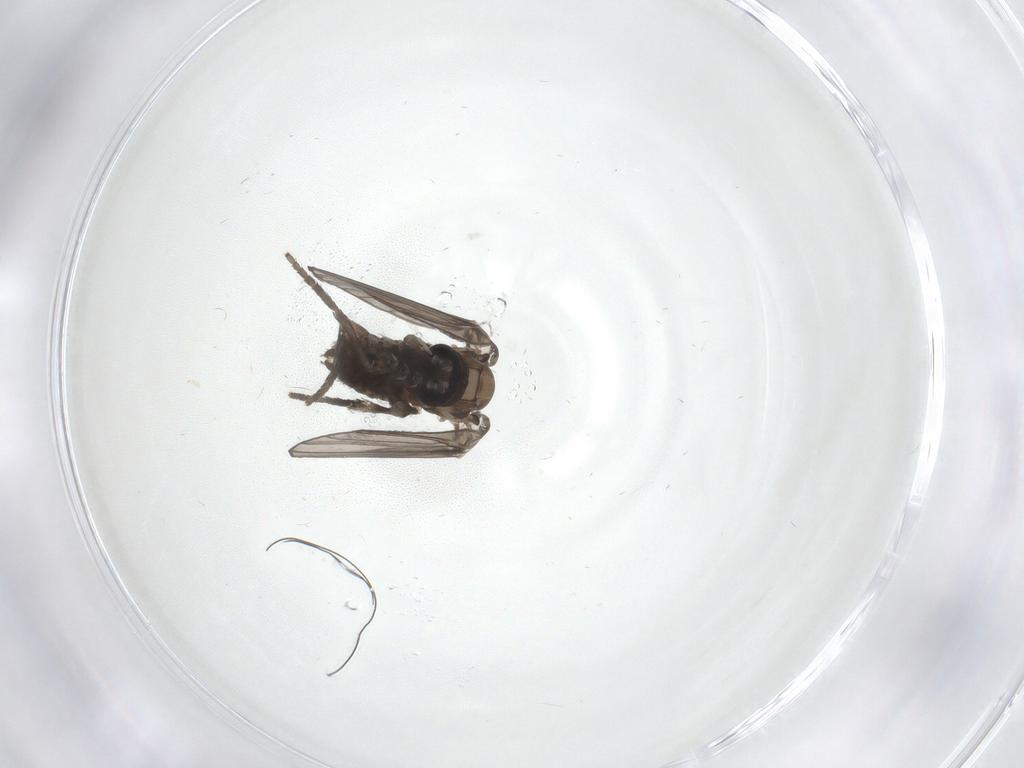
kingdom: Animalia
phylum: Arthropoda
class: Insecta
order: Diptera
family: Psychodidae
